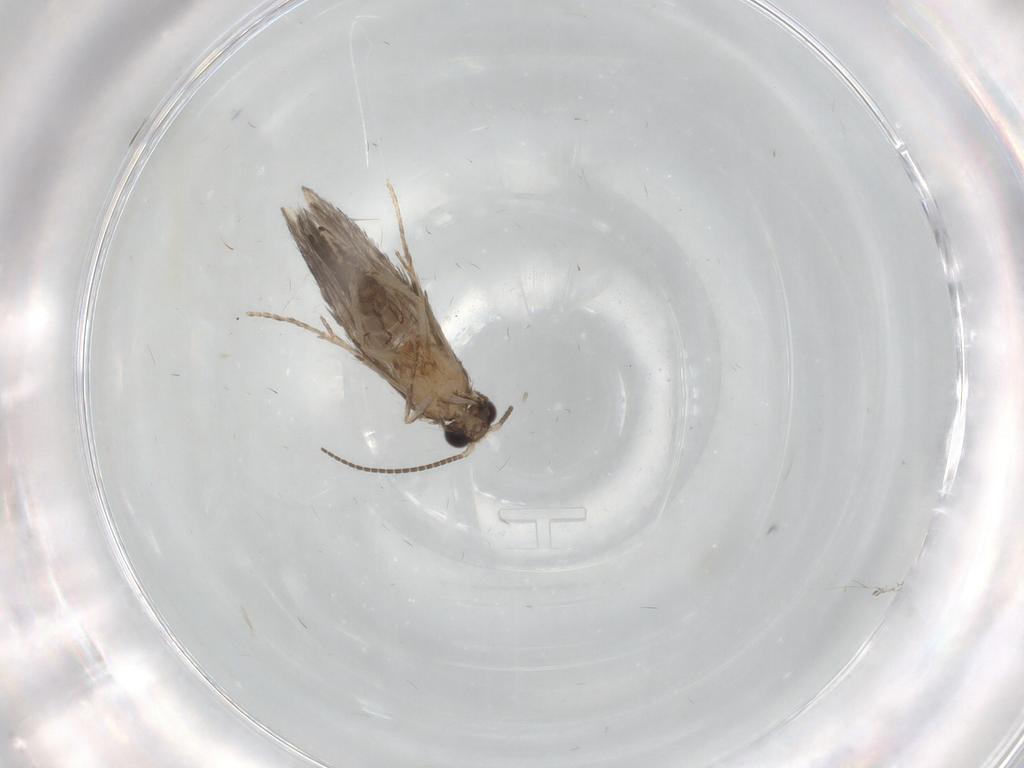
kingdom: Animalia
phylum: Arthropoda
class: Insecta
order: Trichoptera
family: Hydroptilidae
